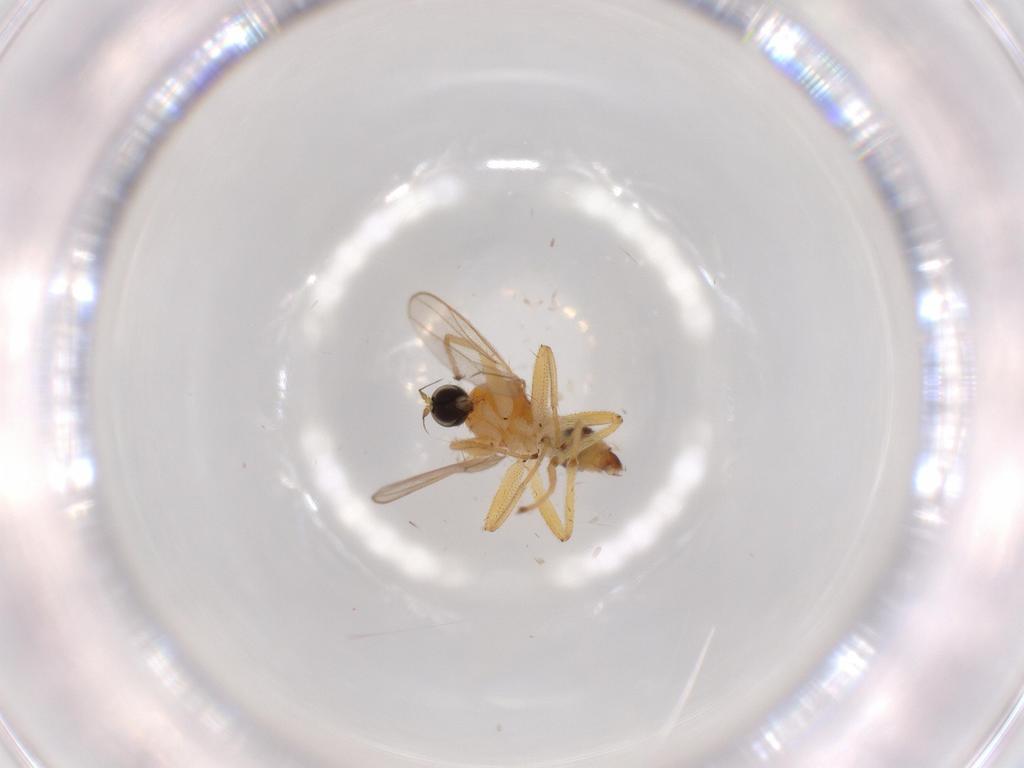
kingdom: Animalia
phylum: Arthropoda
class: Insecta
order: Diptera
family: Hybotidae
